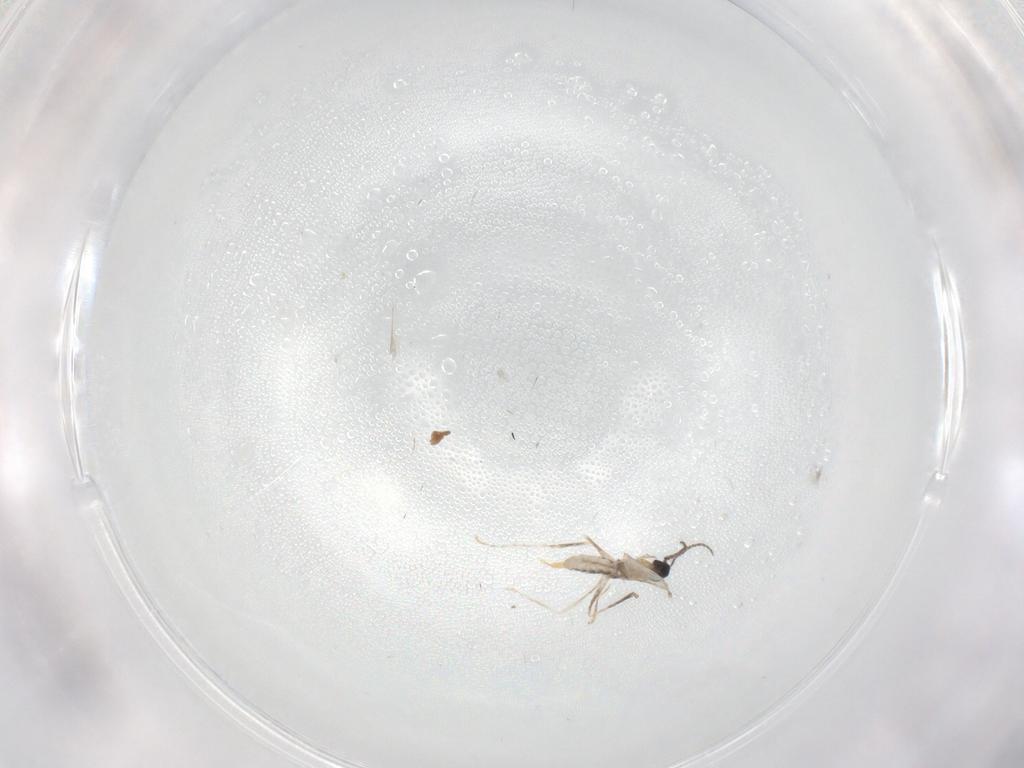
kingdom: Animalia
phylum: Arthropoda
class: Insecta
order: Diptera
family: Cecidomyiidae
